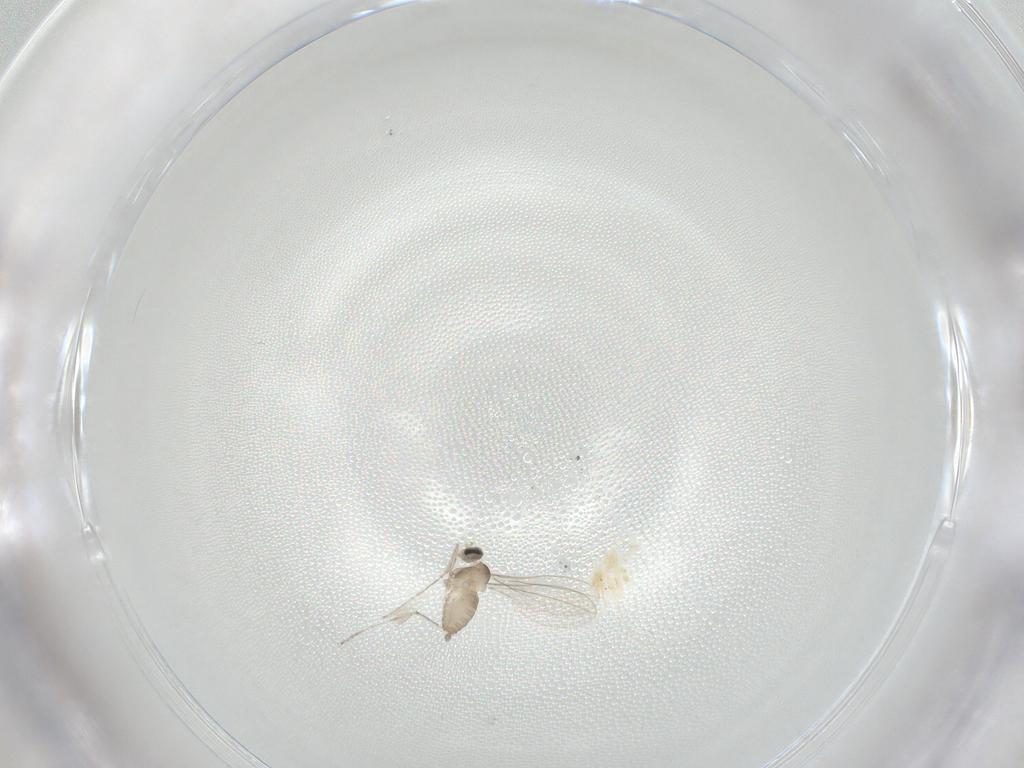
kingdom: Animalia
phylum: Arthropoda
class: Insecta
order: Diptera
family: Cecidomyiidae
